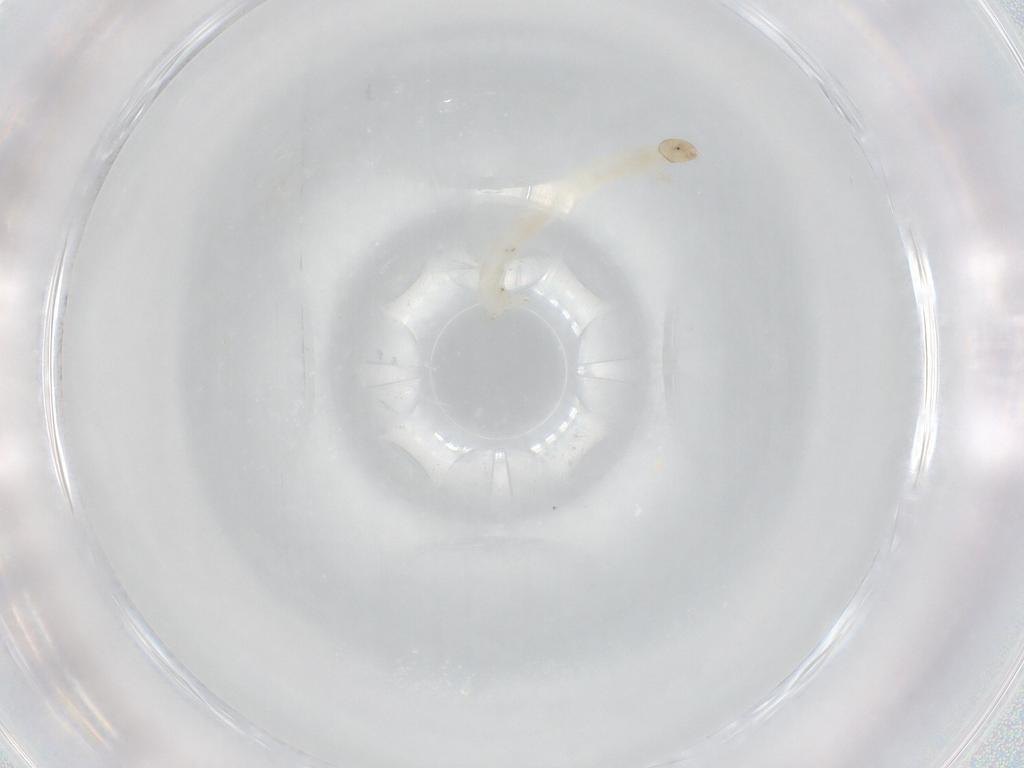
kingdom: Animalia
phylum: Arthropoda
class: Insecta
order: Diptera
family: Chironomidae
